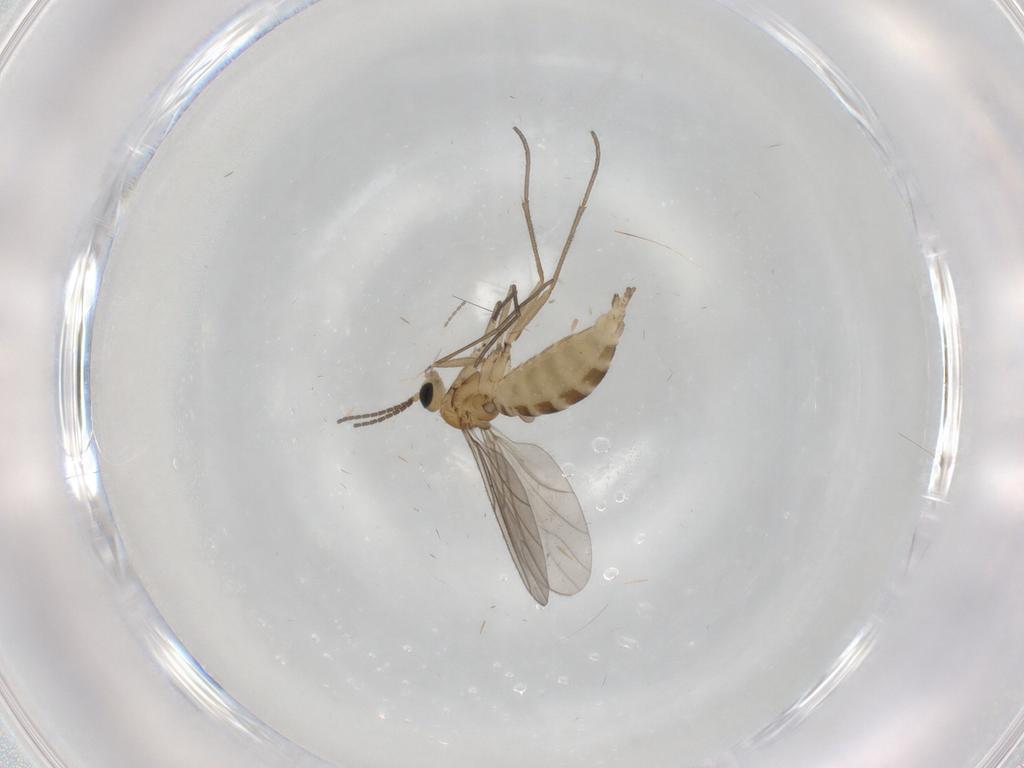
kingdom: Animalia
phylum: Arthropoda
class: Insecta
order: Diptera
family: Sciaridae
